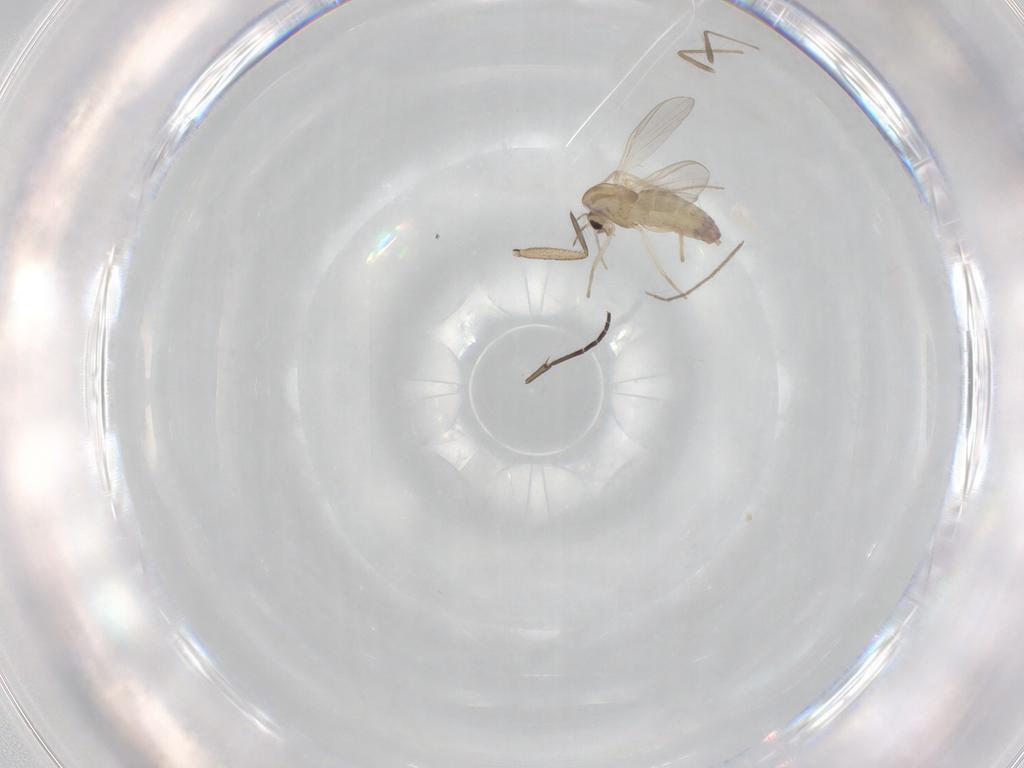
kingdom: Animalia
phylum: Arthropoda
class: Insecta
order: Diptera
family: Chironomidae
